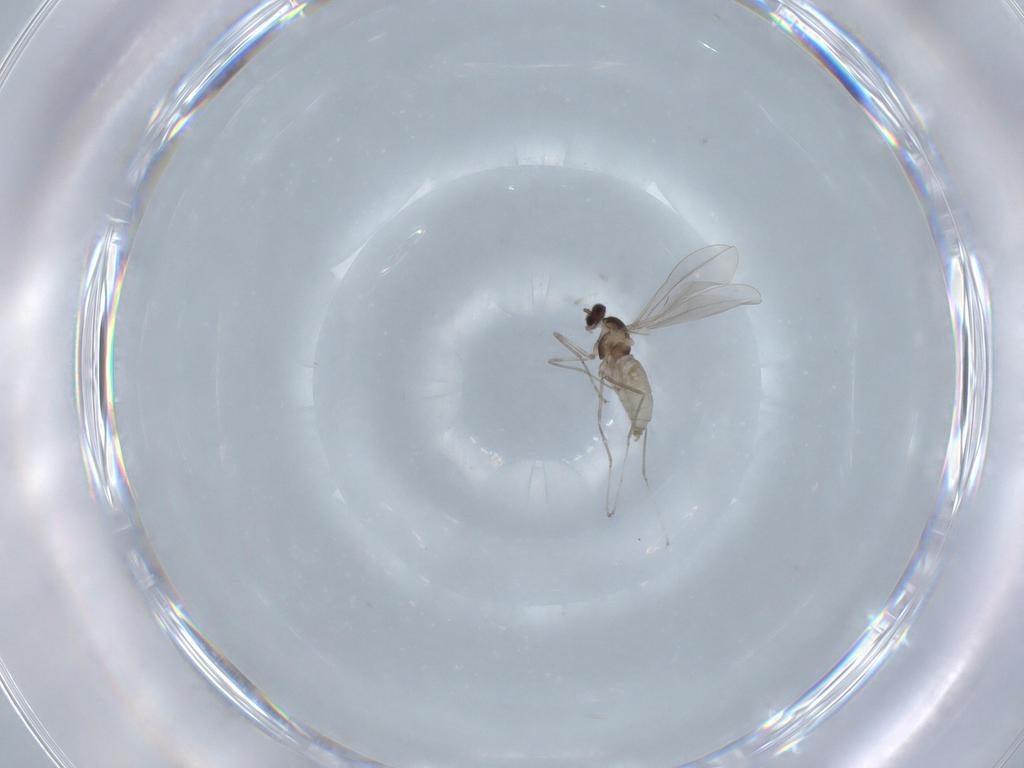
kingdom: Animalia
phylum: Arthropoda
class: Insecta
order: Diptera
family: Cecidomyiidae
